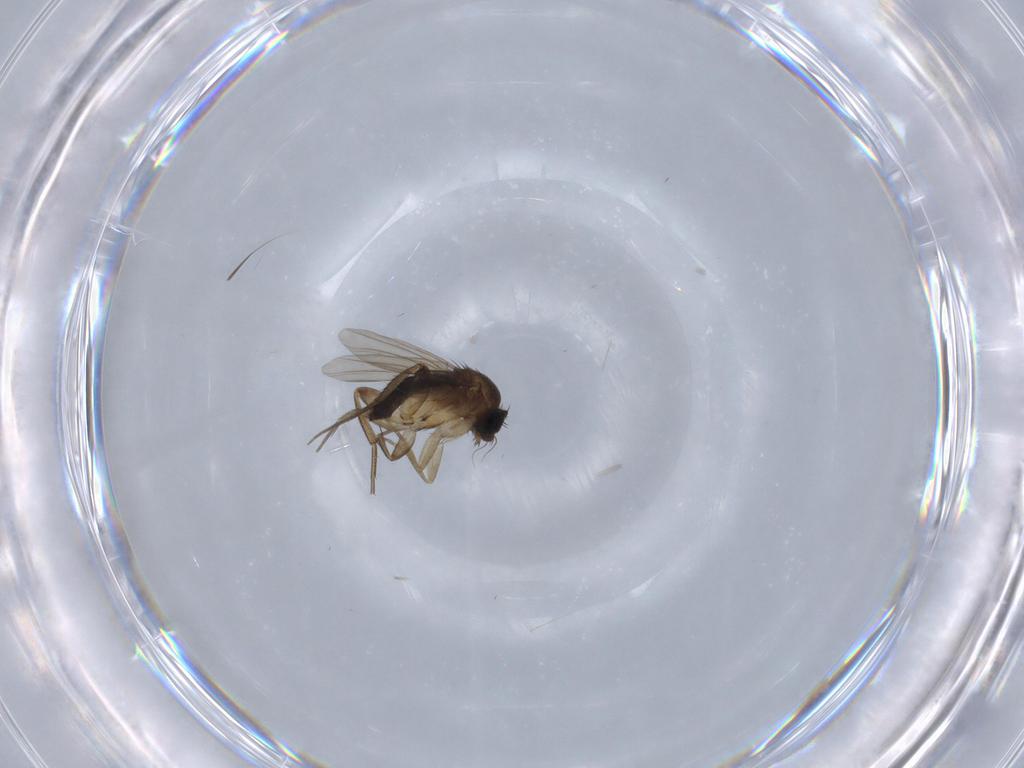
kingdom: Animalia
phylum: Arthropoda
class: Insecta
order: Diptera
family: Phoridae
